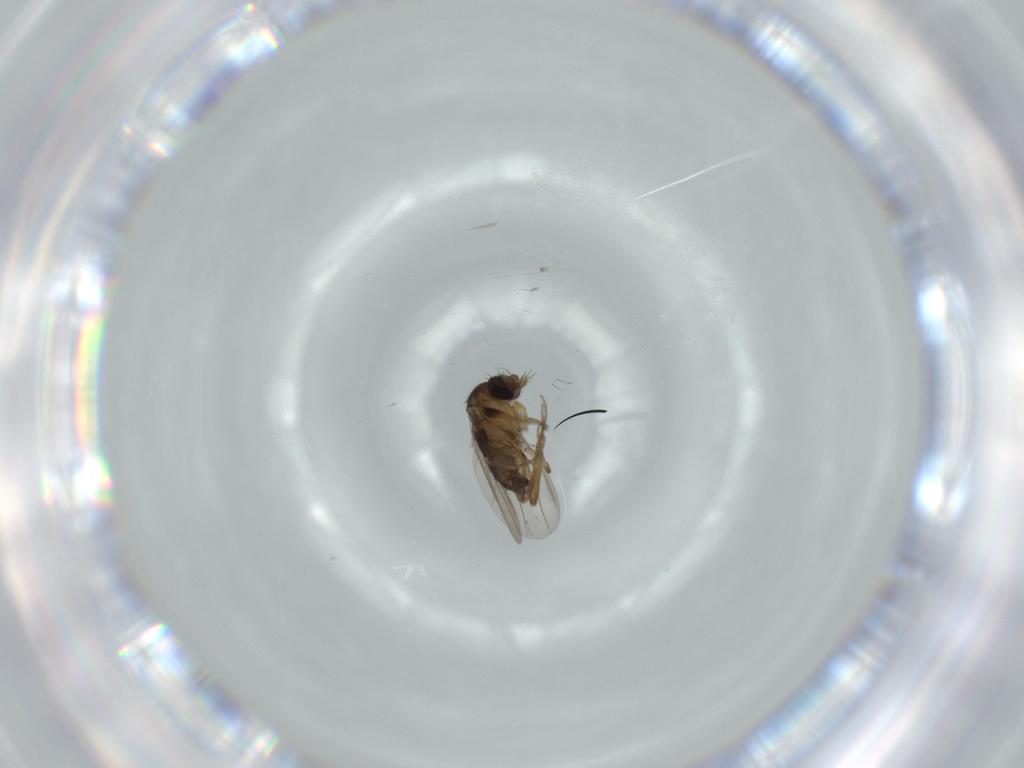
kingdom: Animalia
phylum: Arthropoda
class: Insecta
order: Diptera
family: Phoridae
